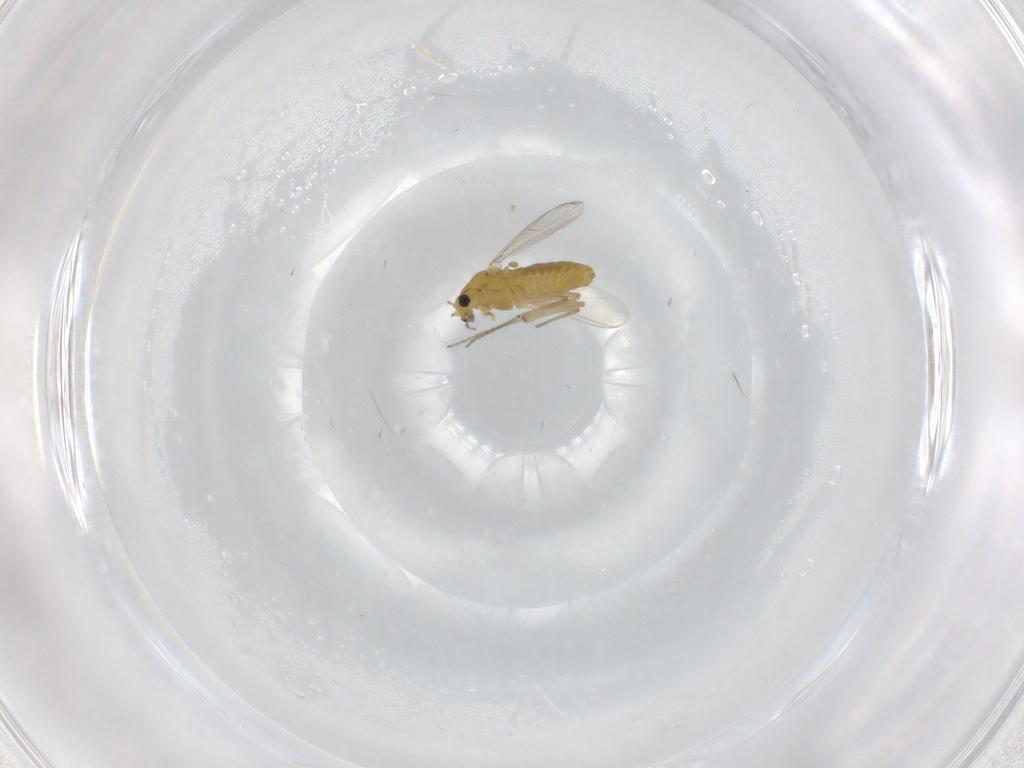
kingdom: Animalia
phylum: Arthropoda
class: Insecta
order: Diptera
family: Chironomidae
